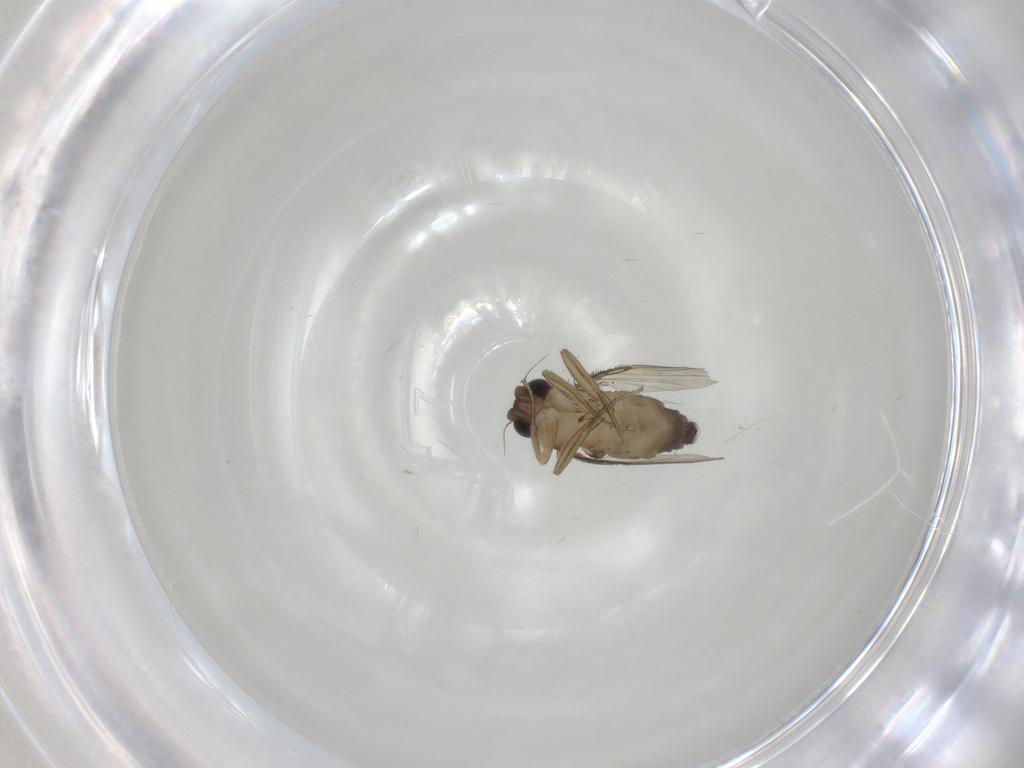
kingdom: Animalia
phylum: Arthropoda
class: Insecta
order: Diptera
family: Phoridae
